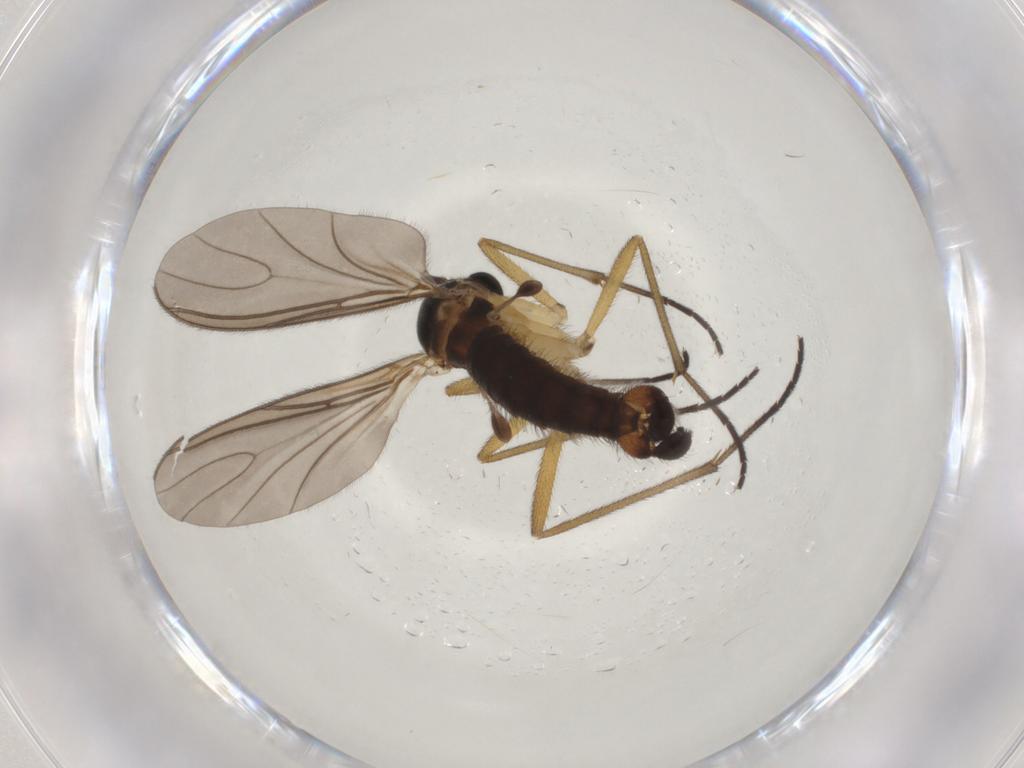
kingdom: Animalia
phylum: Arthropoda
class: Insecta
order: Diptera
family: Sciaridae
